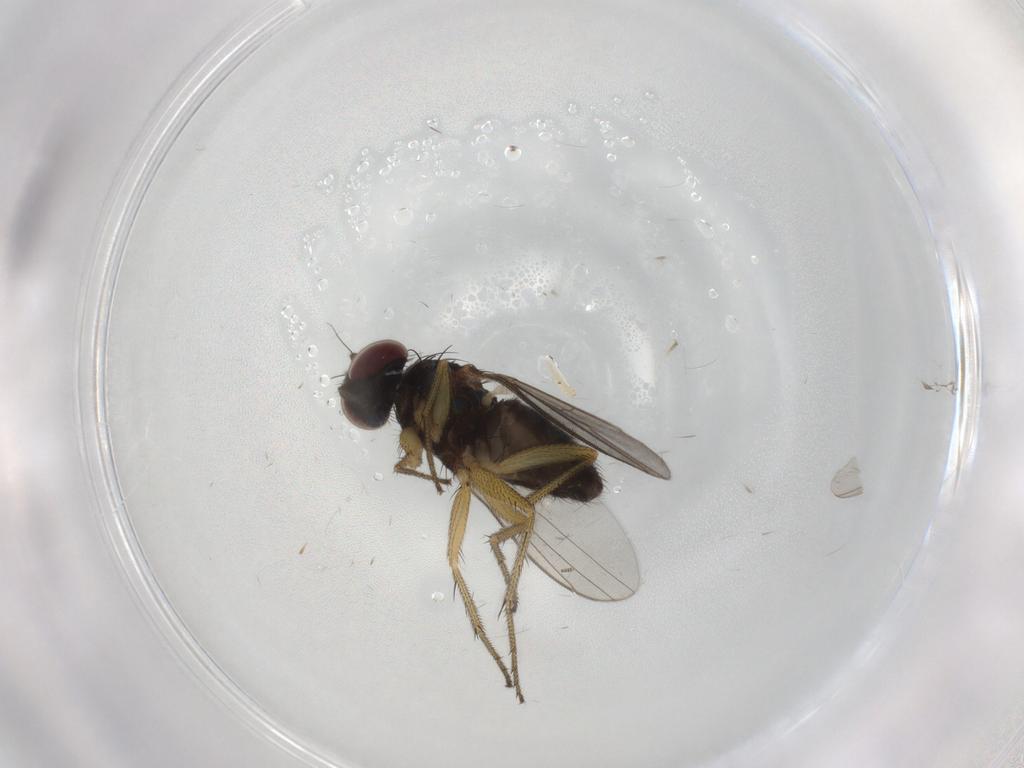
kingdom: Animalia
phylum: Arthropoda
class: Insecta
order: Diptera
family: Dolichopodidae
